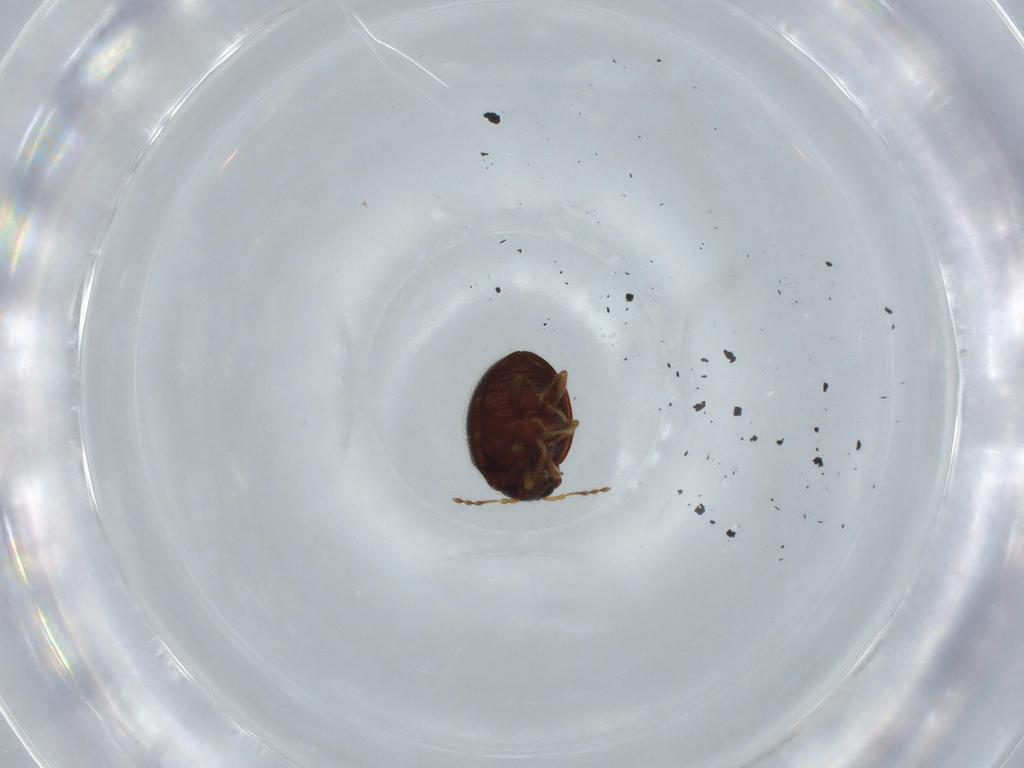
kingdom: Animalia
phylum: Arthropoda
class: Insecta
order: Coleoptera
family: Anamorphidae
